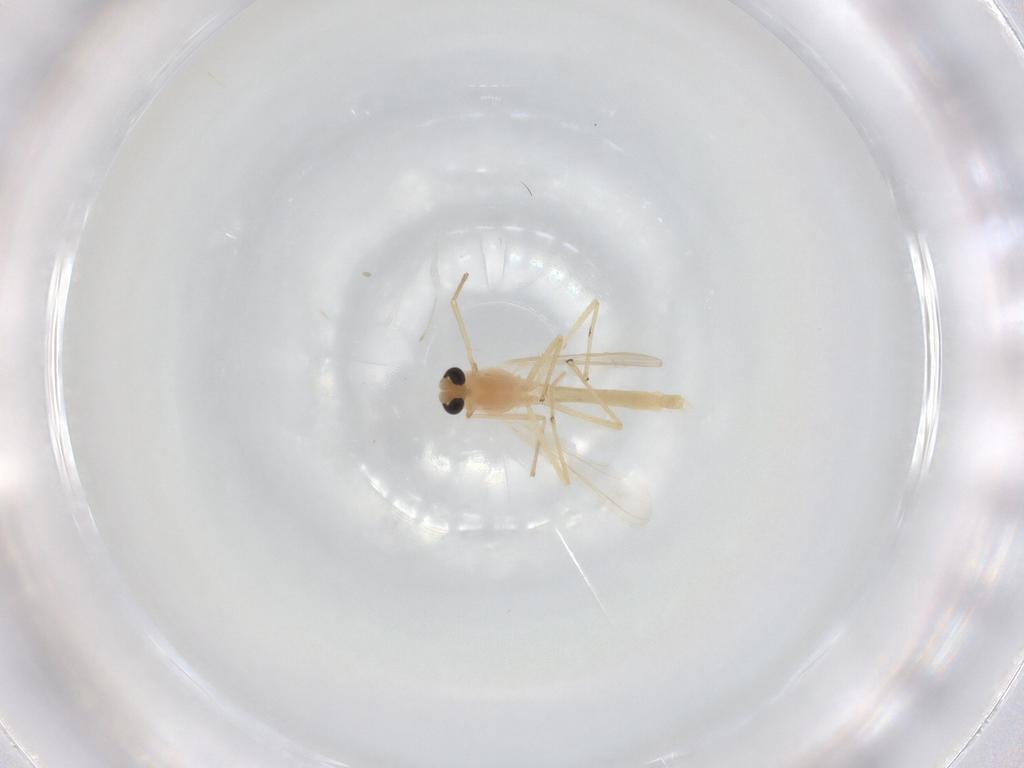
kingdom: Animalia
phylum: Arthropoda
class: Insecta
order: Diptera
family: Chironomidae
